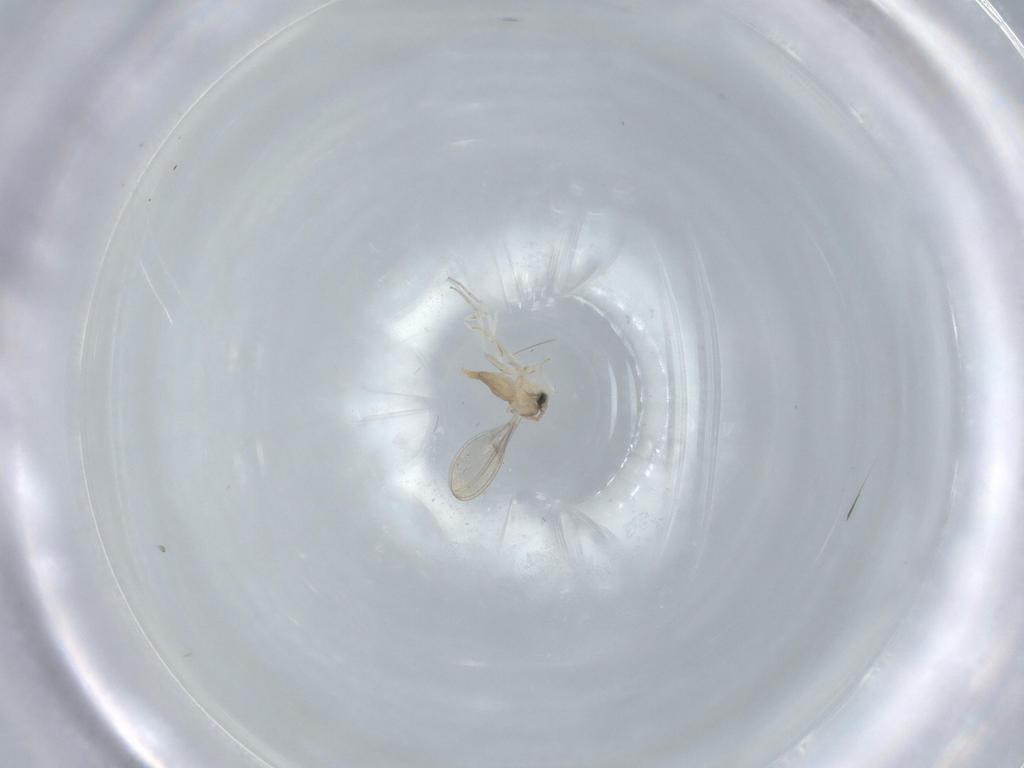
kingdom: Animalia
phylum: Arthropoda
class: Insecta
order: Diptera
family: Cecidomyiidae
